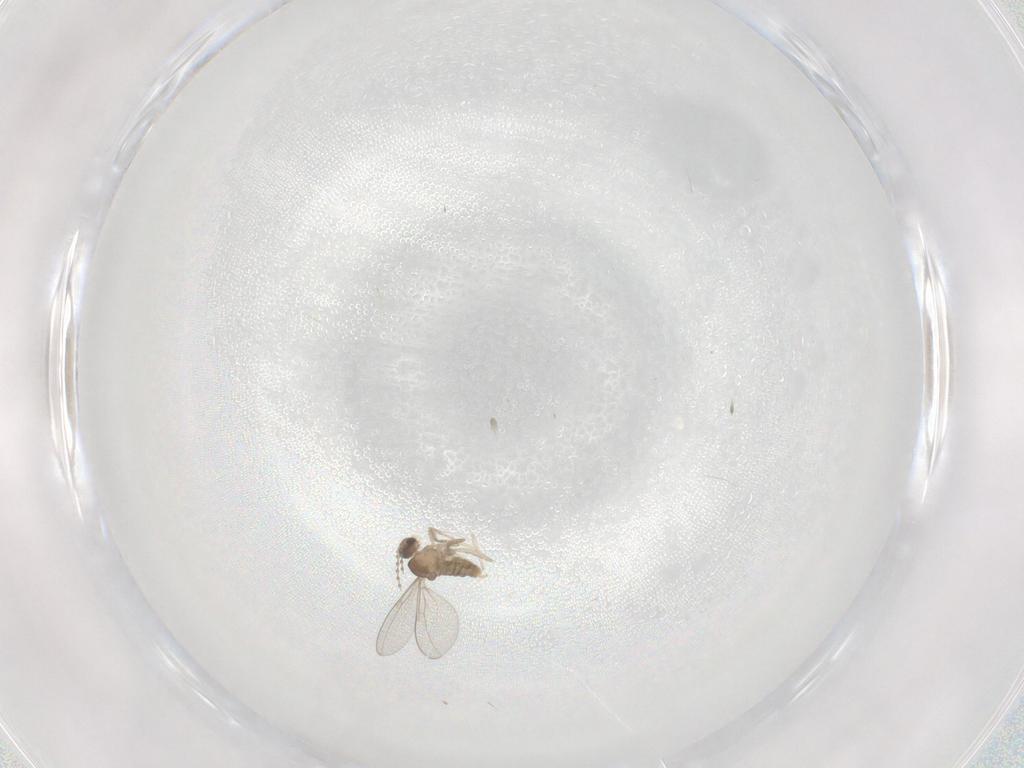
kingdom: Animalia
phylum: Arthropoda
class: Insecta
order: Diptera
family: Cecidomyiidae
